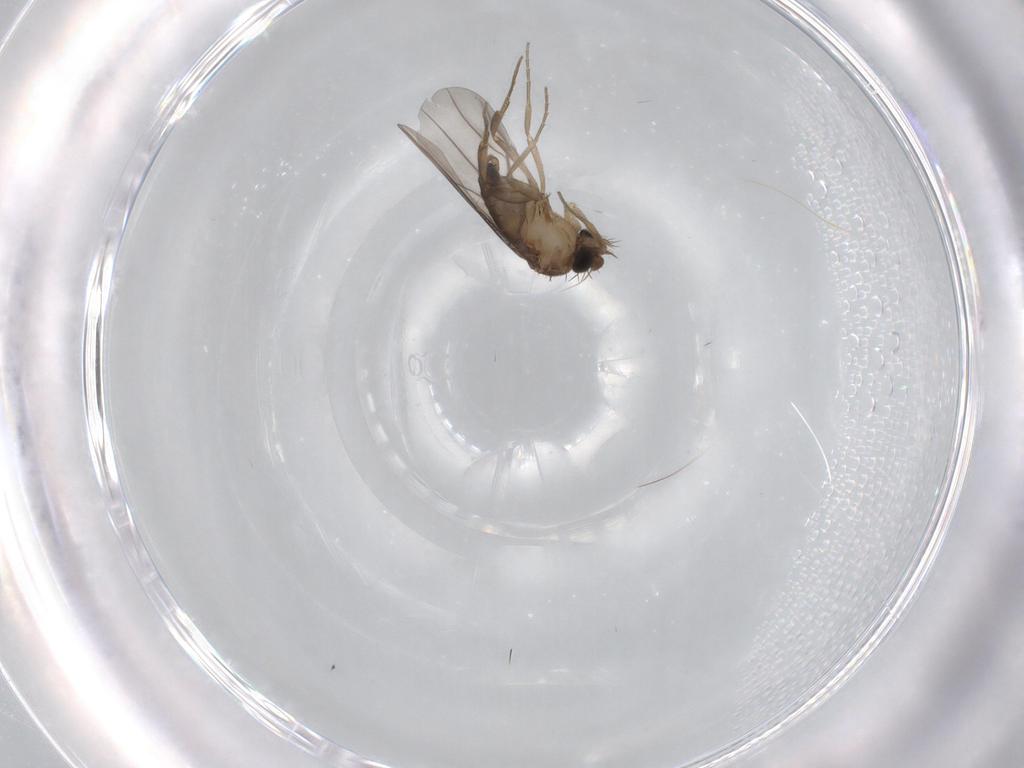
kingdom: Animalia
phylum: Arthropoda
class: Insecta
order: Diptera
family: Phoridae
